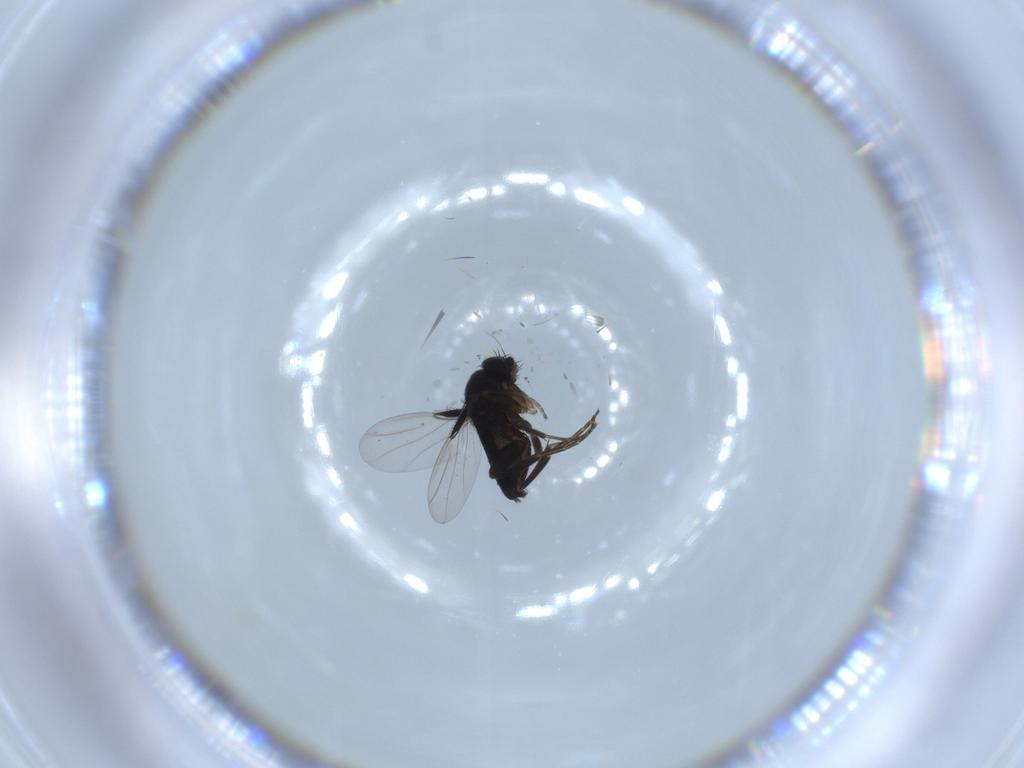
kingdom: Animalia
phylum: Arthropoda
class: Insecta
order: Diptera
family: Phoridae
